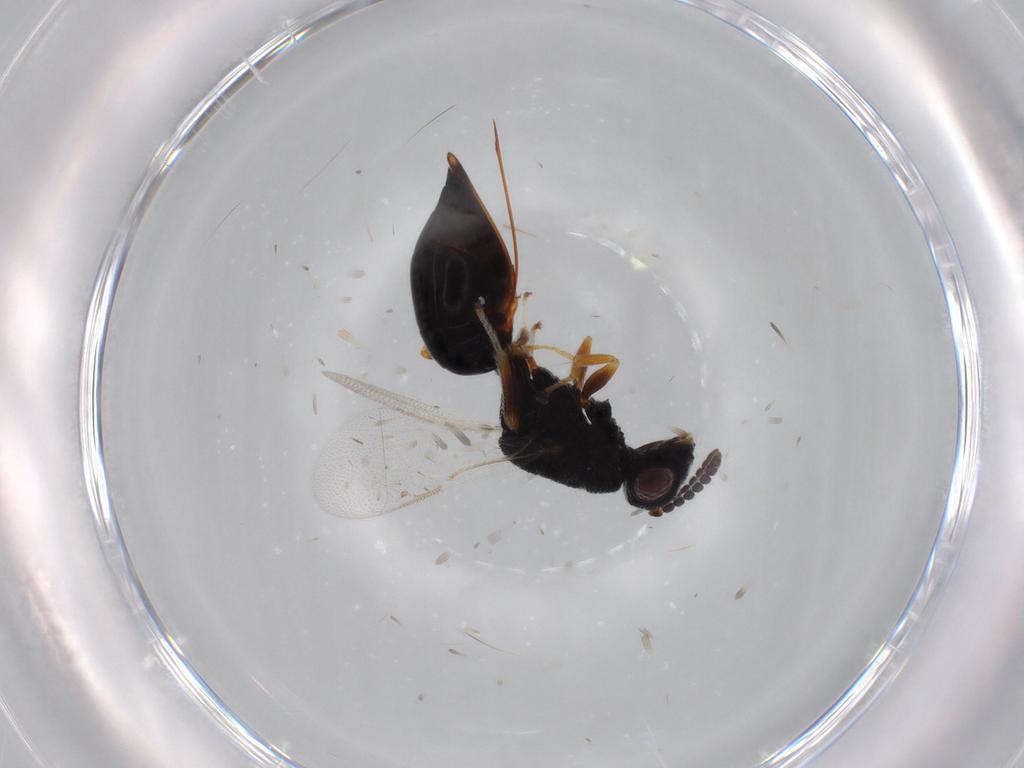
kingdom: Animalia
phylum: Arthropoda
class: Insecta
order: Hymenoptera
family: Eurytomidae
